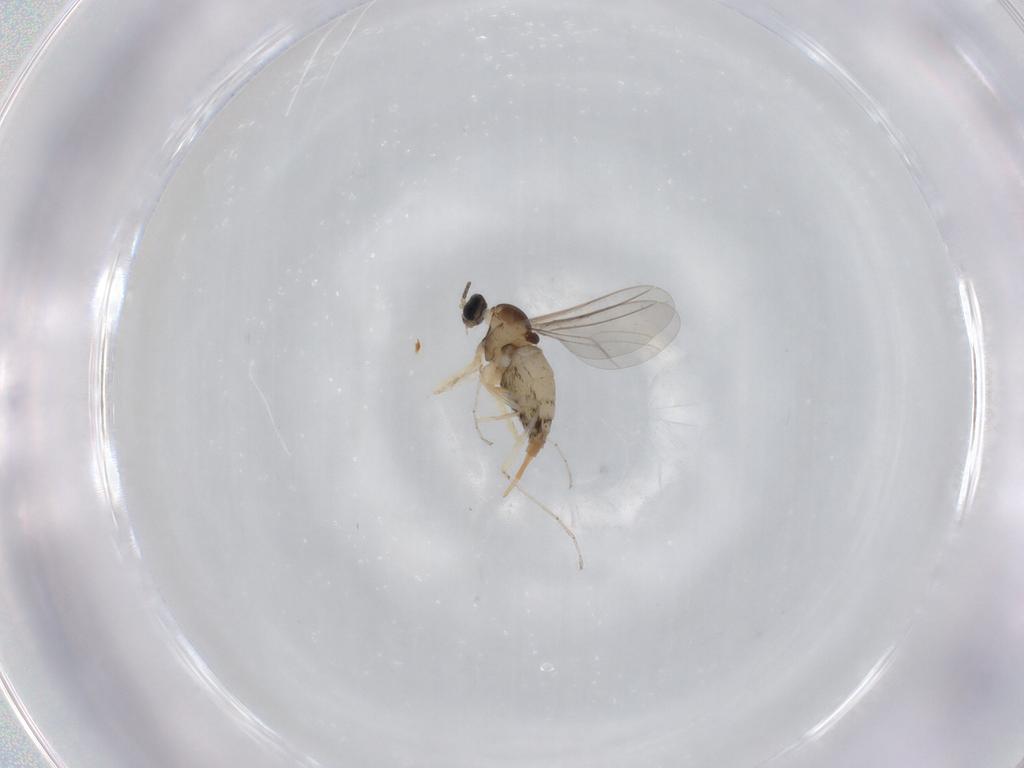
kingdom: Animalia
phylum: Arthropoda
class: Insecta
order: Diptera
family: Cecidomyiidae
